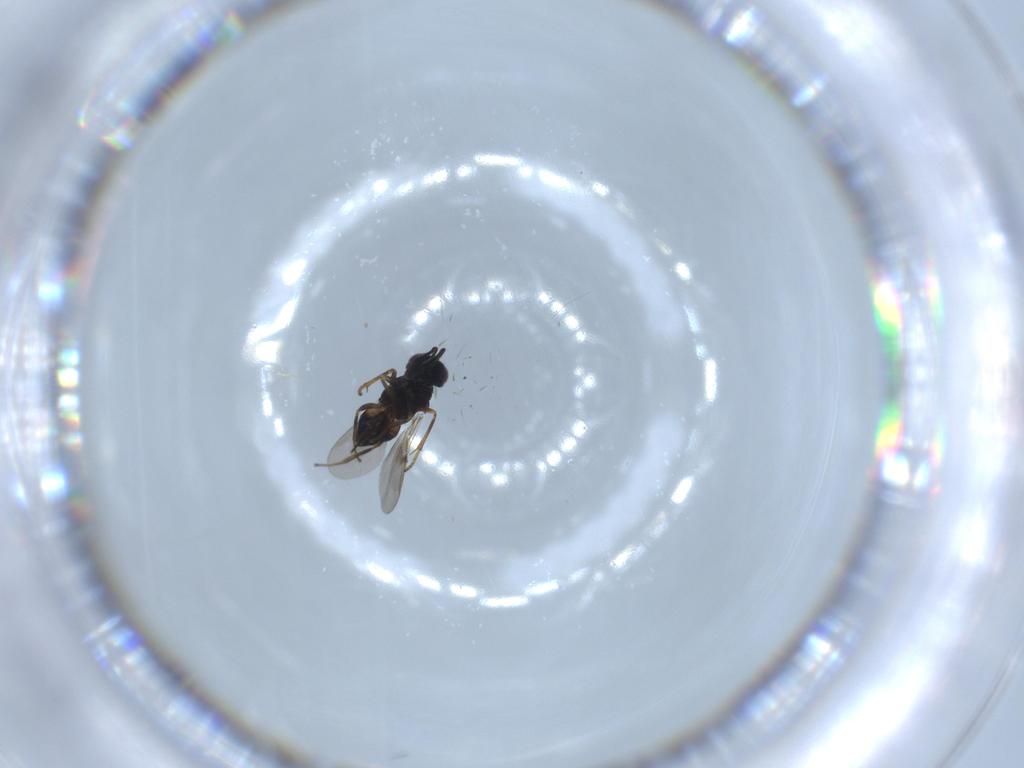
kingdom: Animalia
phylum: Arthropoda
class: Insecta
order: Hymenoptera
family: Encyrtidae
